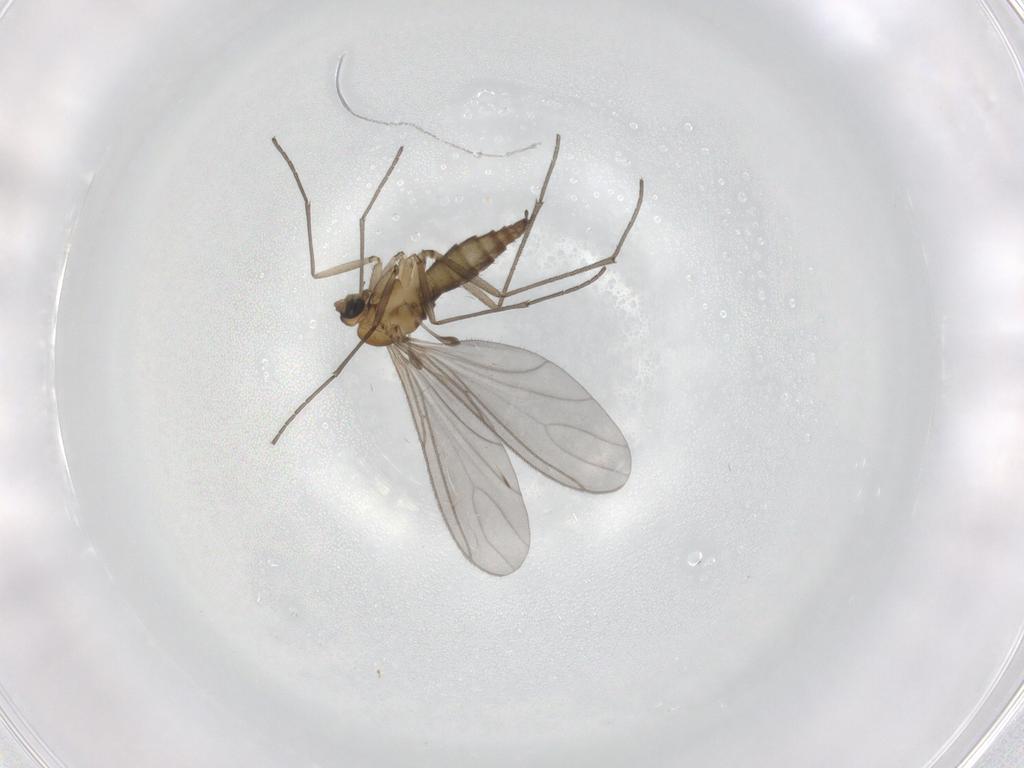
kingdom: Animalia
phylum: Arthropoda
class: Insecta
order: Diptera
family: Sciaridae
